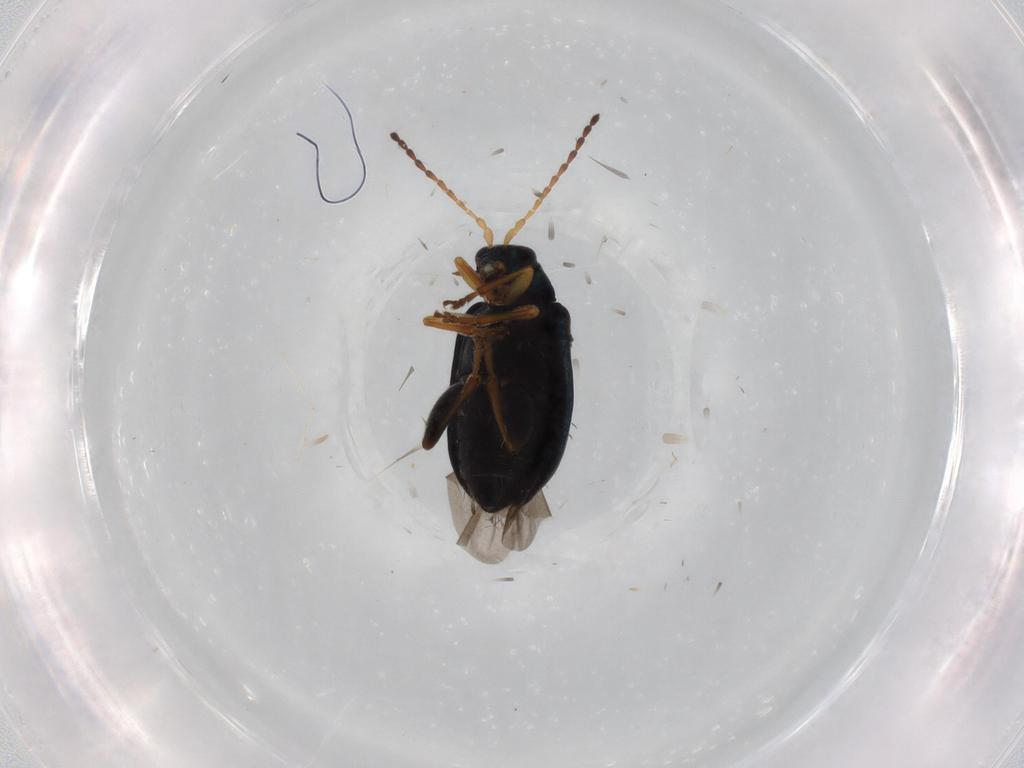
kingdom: Animalia
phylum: Arthropoda
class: Insecta
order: Coleoptera
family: Chrysomelidae
